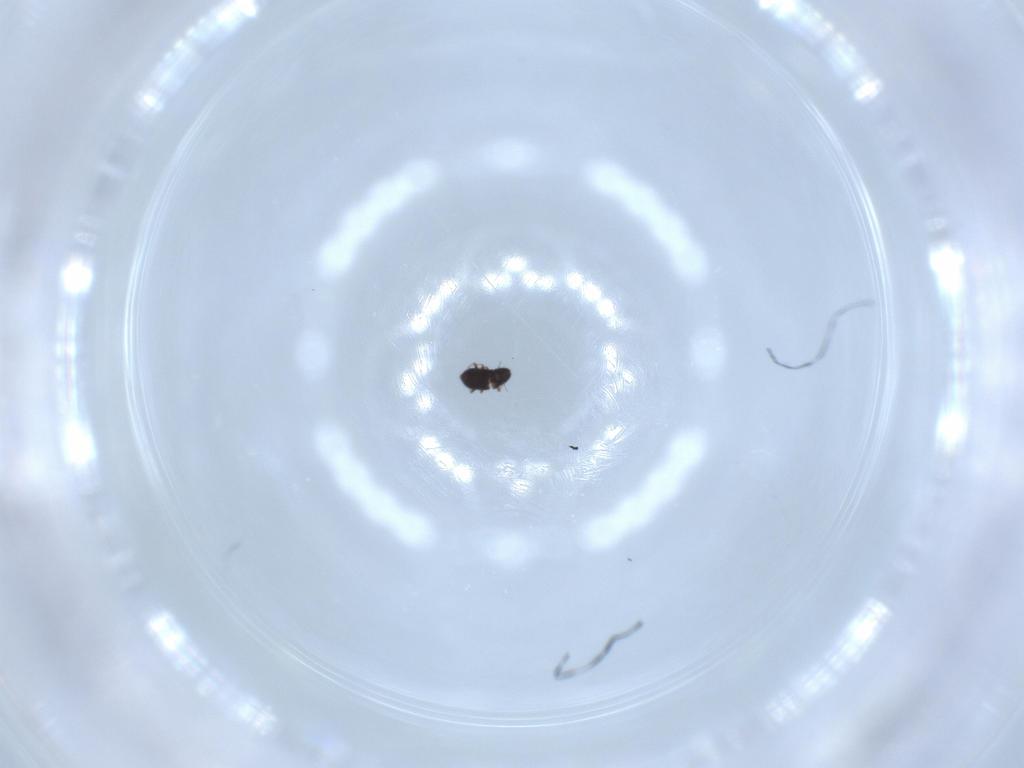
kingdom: Animalia
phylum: Arthropoda
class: Insecta
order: Coleoptera
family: Ripiphoridae
